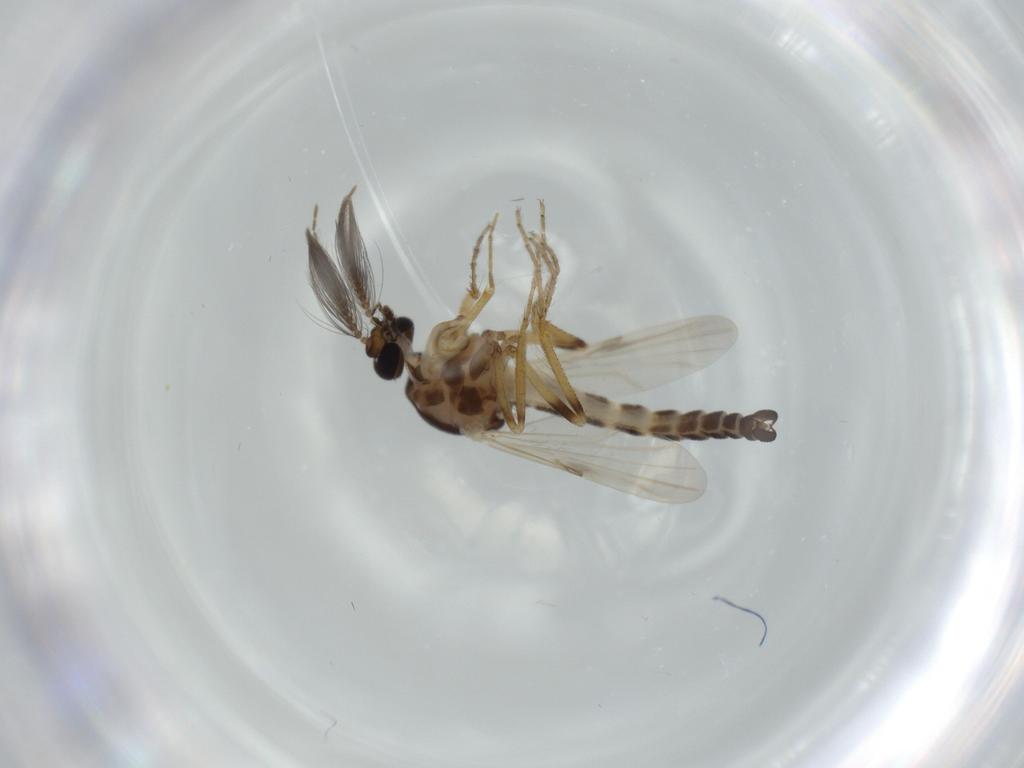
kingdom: Animalia
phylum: Arthropoda
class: Insecta
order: Diptera
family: Ceratopogonidae
